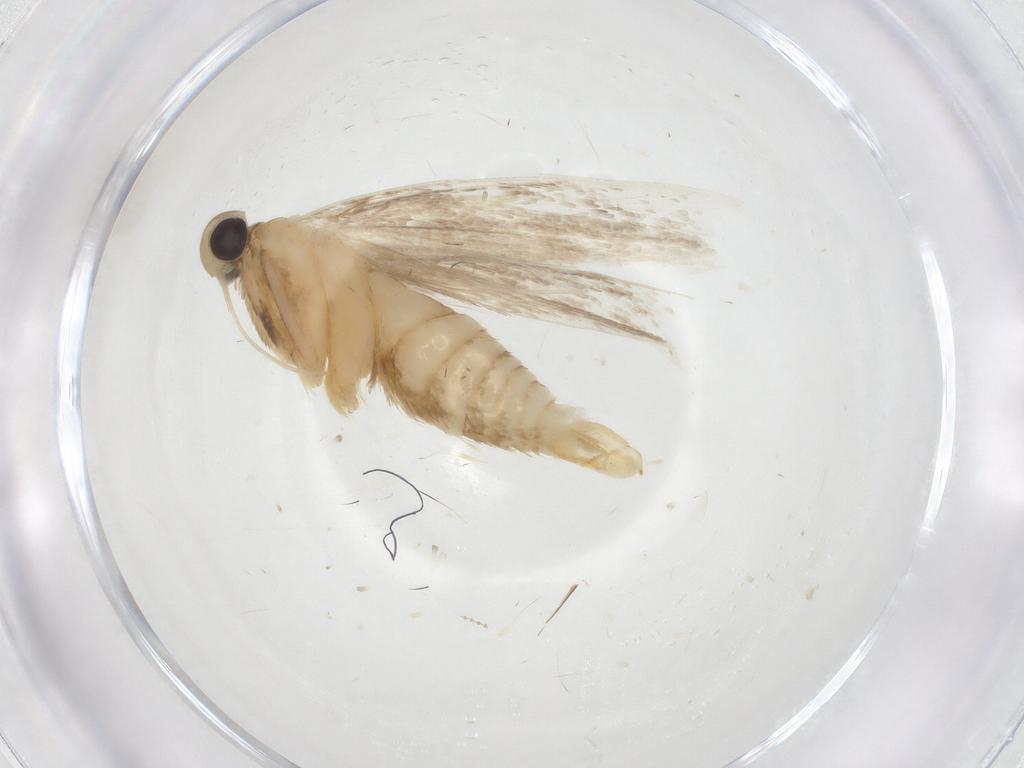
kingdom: Animalia
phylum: Arthropoda
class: Insecta
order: Lepidoptera
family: Autostichidae
